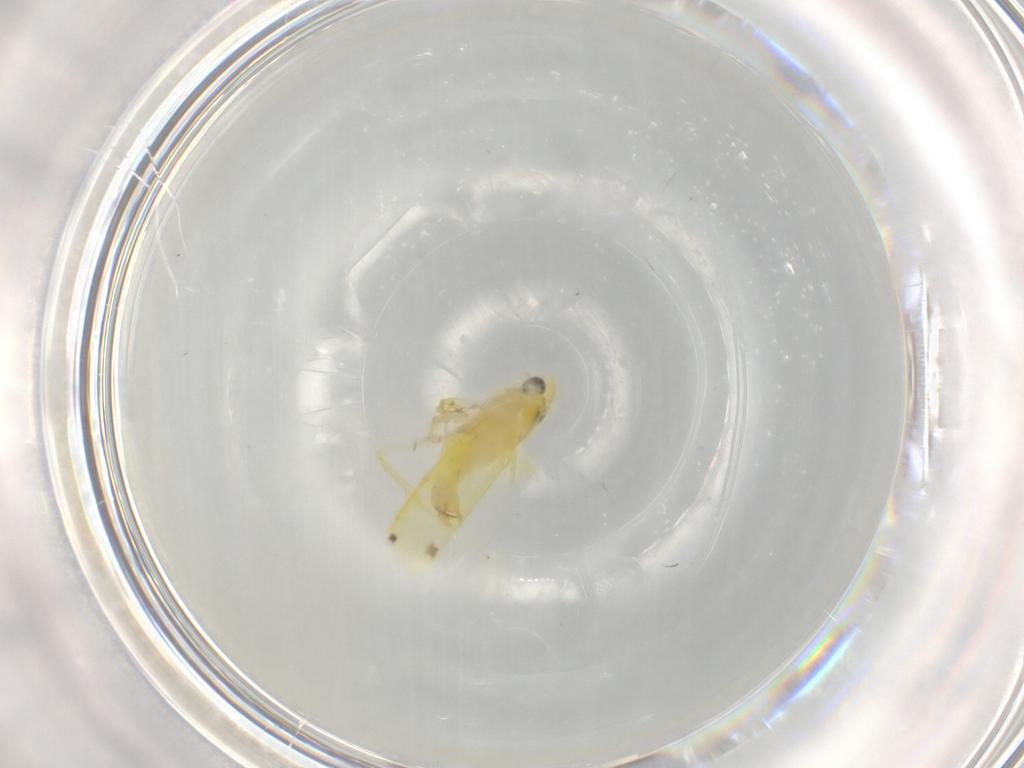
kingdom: Animalia
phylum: Arthropoda
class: Insecta
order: Hemiptera
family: Cicadellidae
